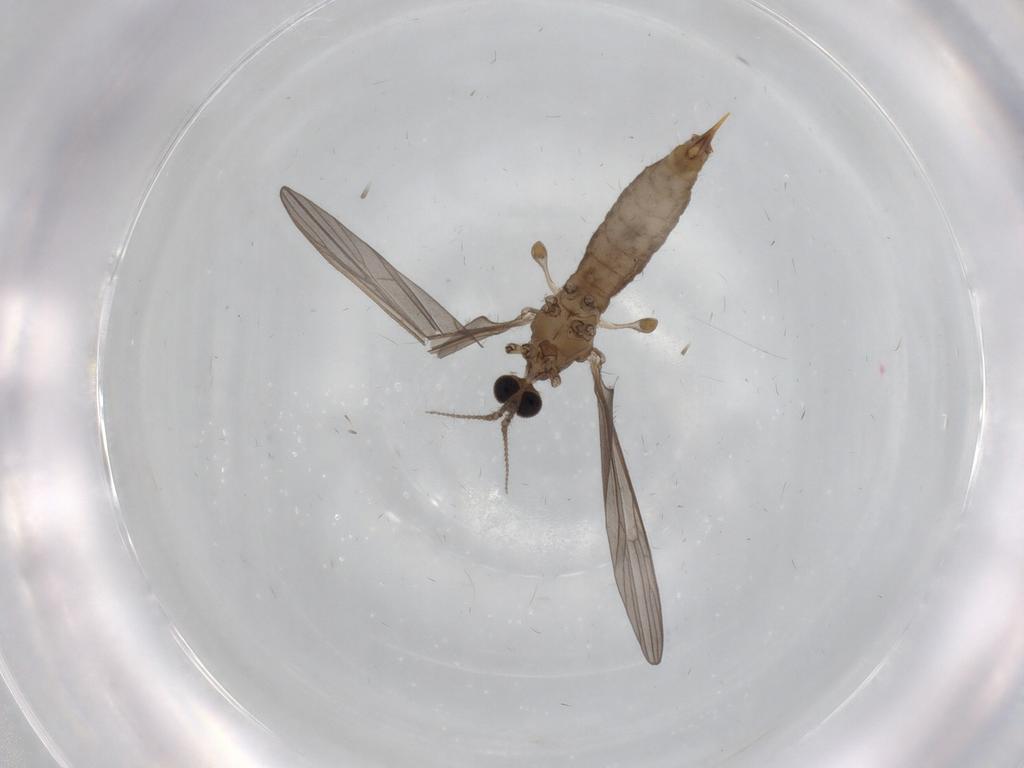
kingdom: Animalia
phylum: Arthropoda
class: Insecta
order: Diptera
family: Limoniidae
